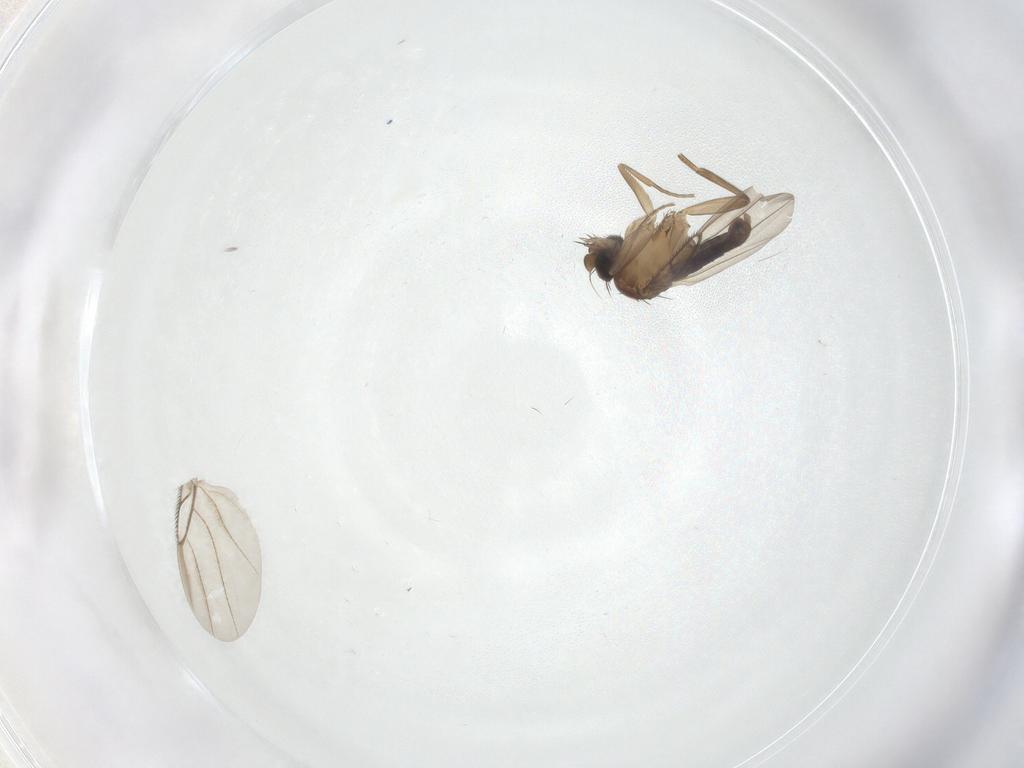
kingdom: Animalia
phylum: Arthropoda
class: Insecta
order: Diptera
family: Phoridae
